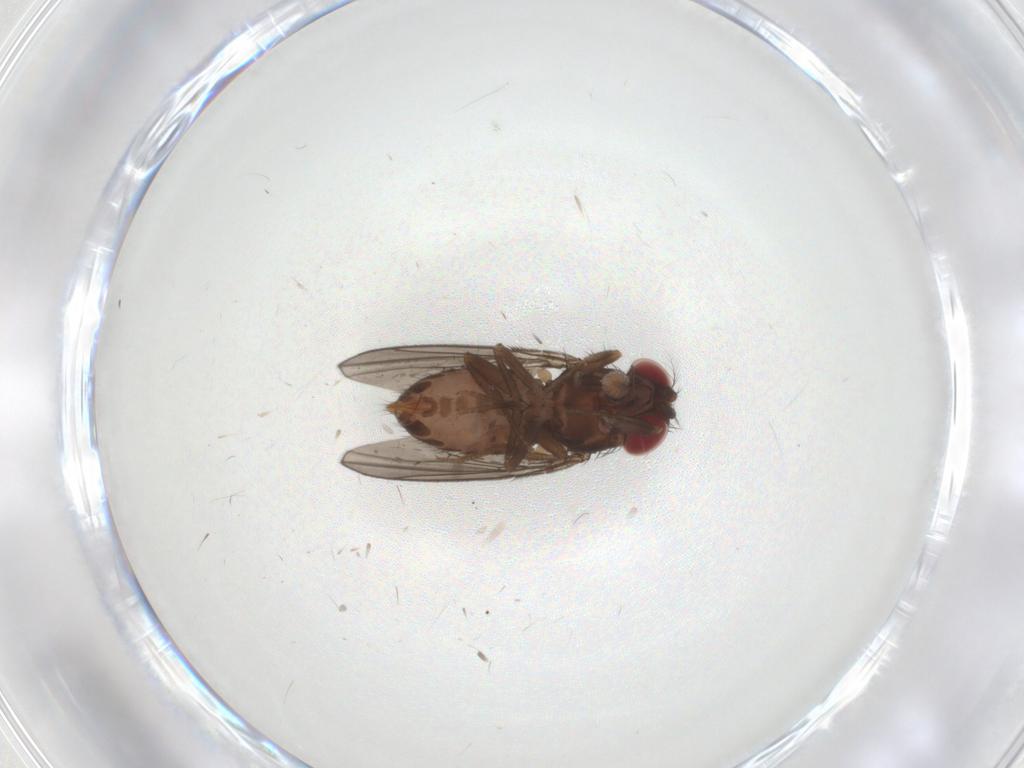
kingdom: Animalia
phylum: Arthropoda
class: Insecta
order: Diptera
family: Drosophilidae
